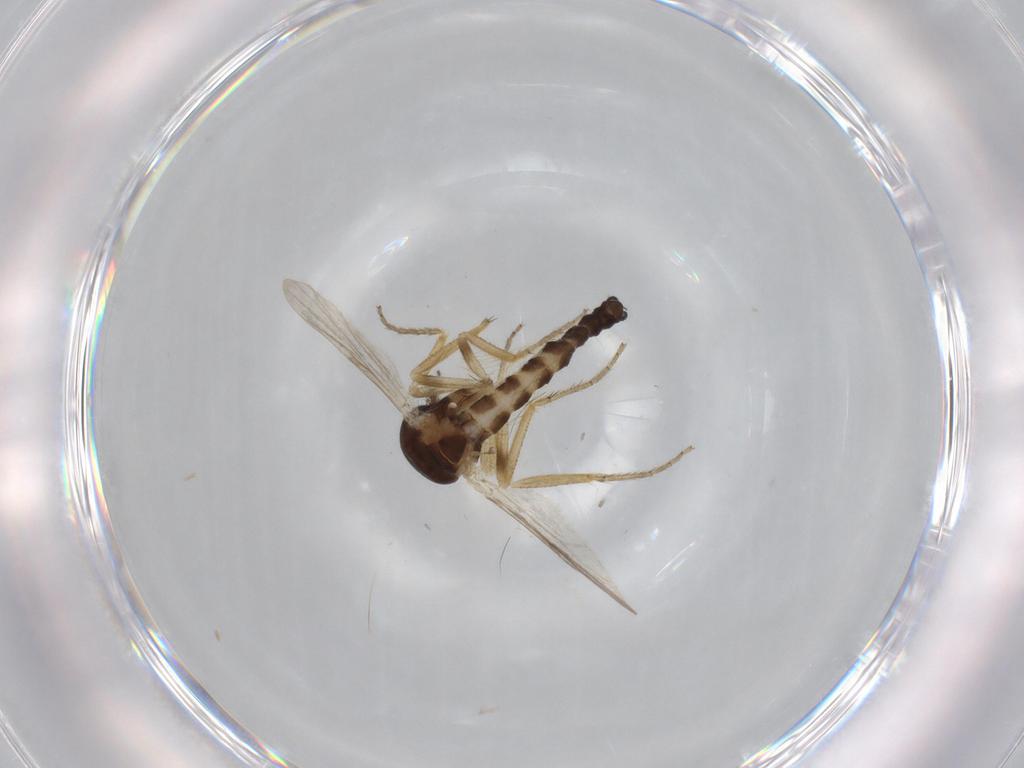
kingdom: Animalia
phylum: Arthropoda
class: Insecta
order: Diptera
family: Ceratopogonidae
